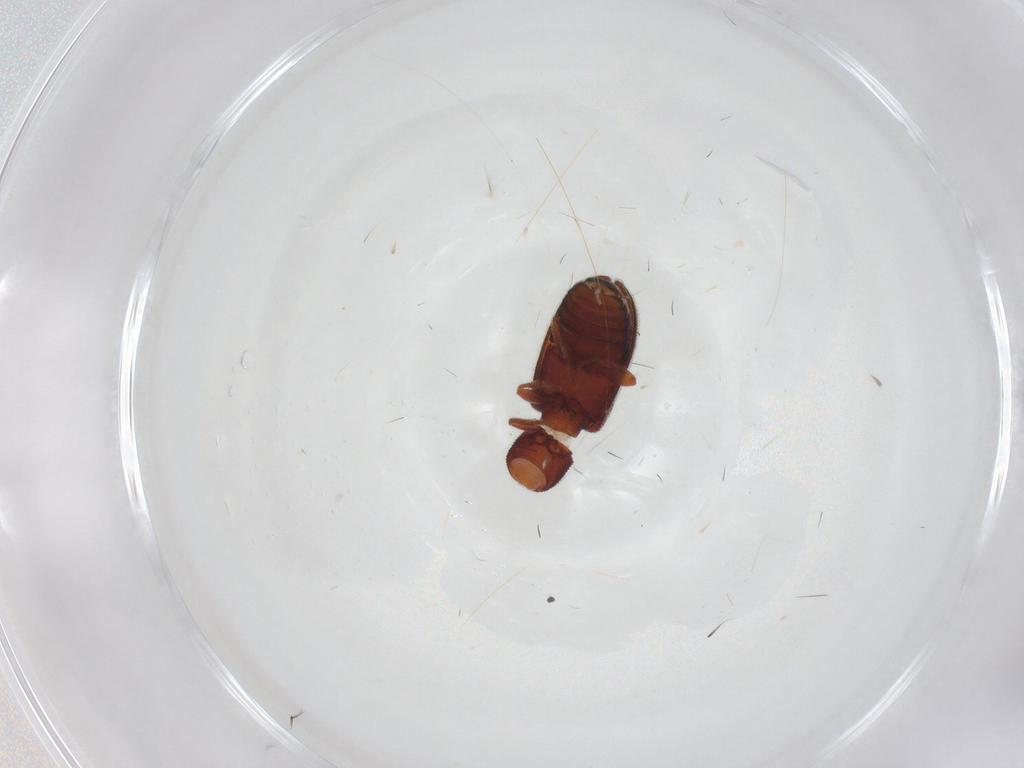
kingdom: Animalia
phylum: Arthropoda
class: Insecta
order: Coleoptera
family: Mycetophagidae
